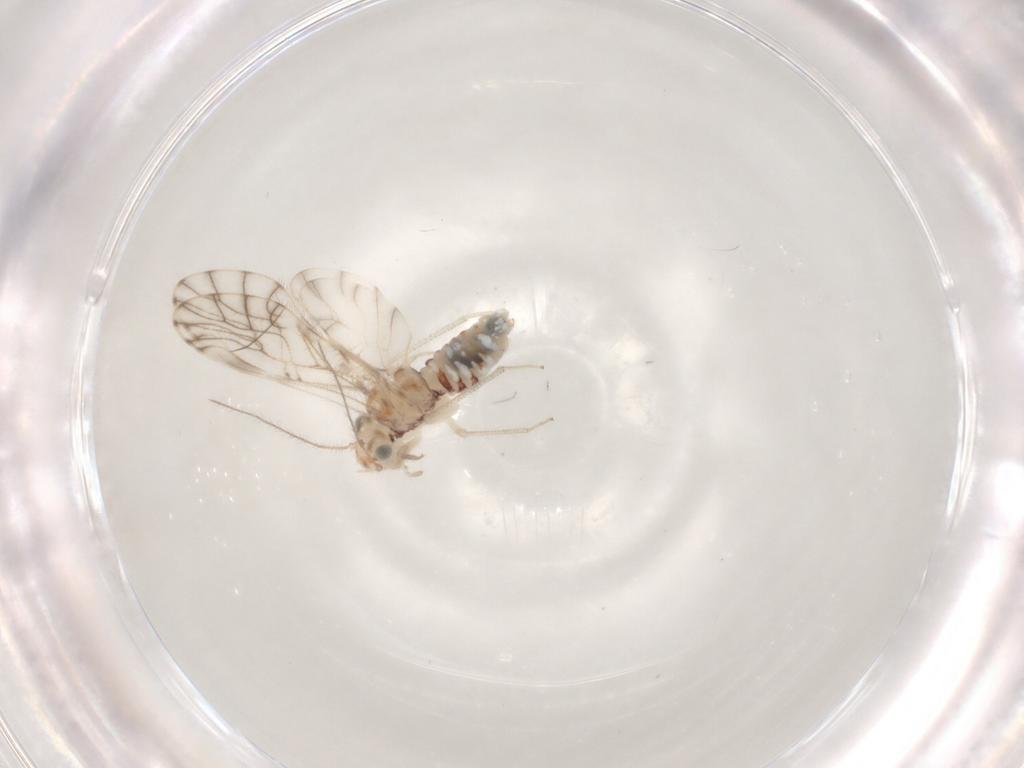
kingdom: Animalia
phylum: Arthropoda
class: Insecta
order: Psocodea
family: Philotarsidae
